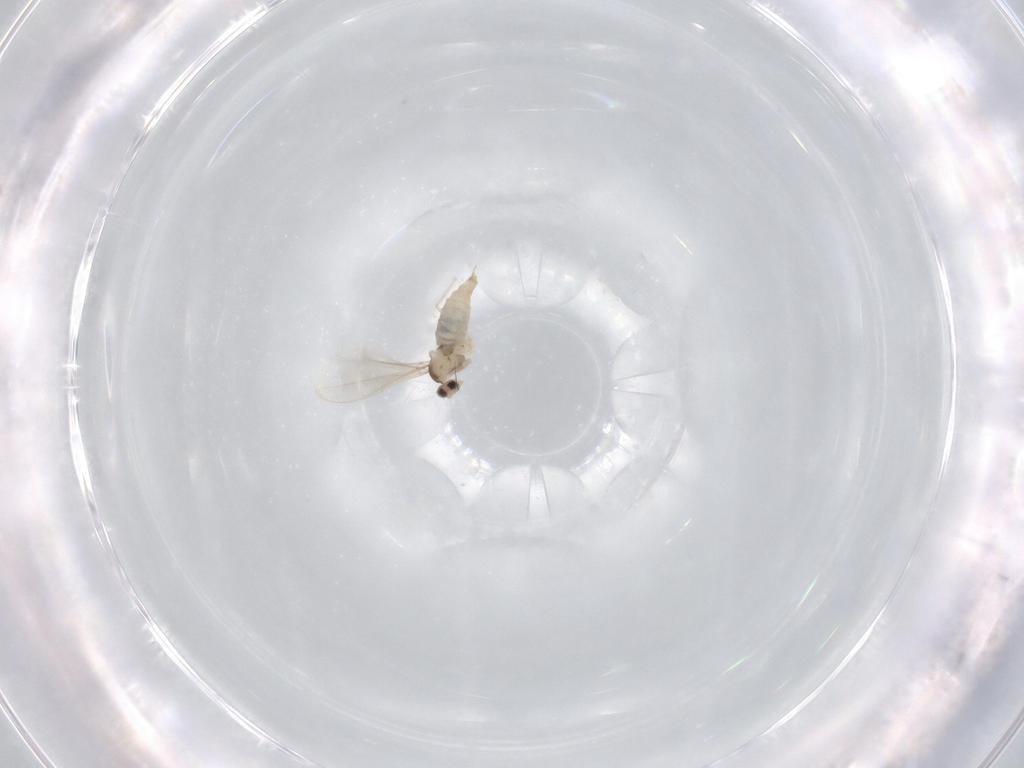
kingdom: Animalia
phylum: Arthropoda
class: Insecta
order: Diptera
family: Cecidomyiidae
